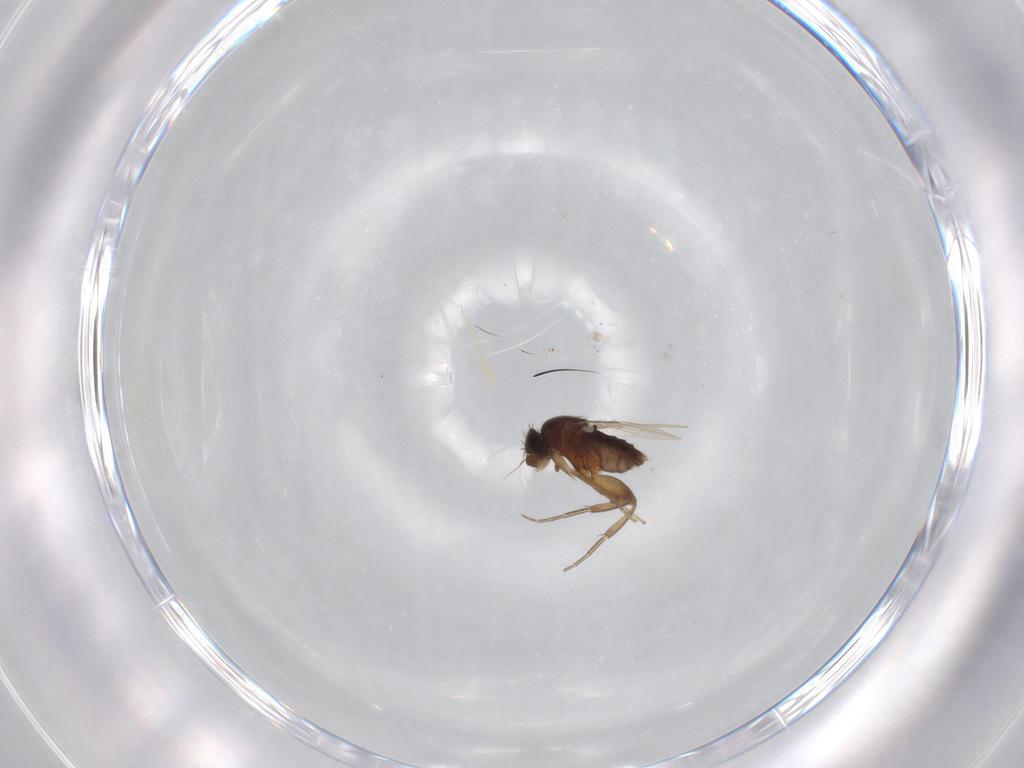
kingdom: Animalia
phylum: Arthropoda
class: Insecta
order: Diptera
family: Phoridae
